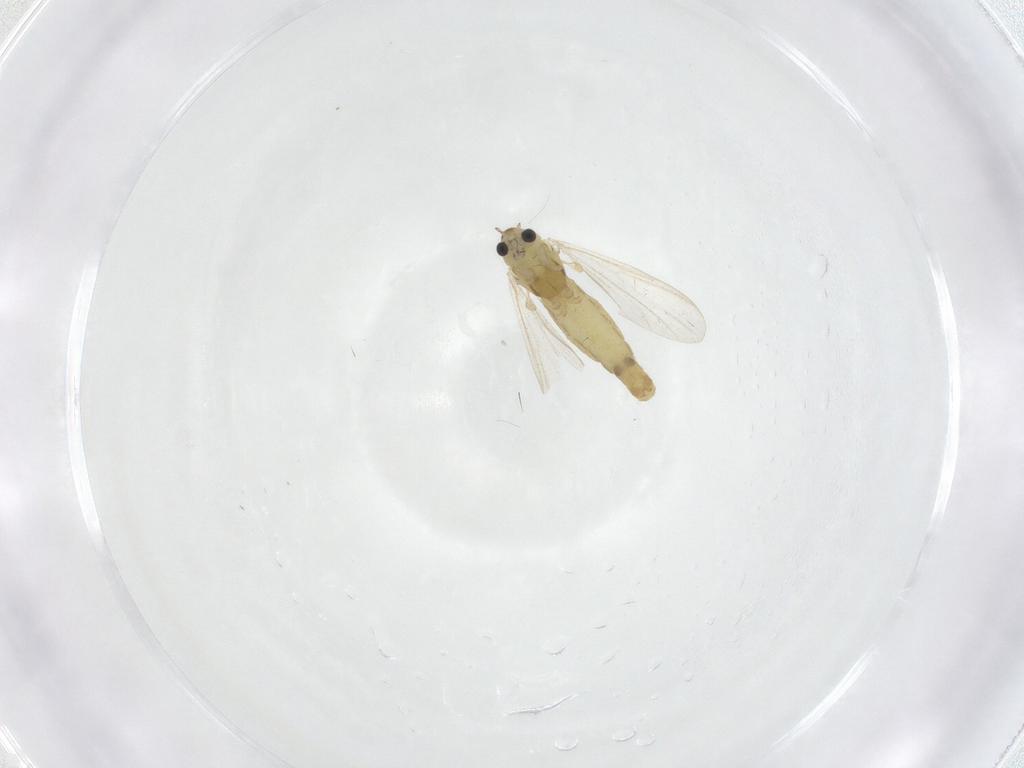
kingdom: Animalia
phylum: Arthropoda
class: Insecta
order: Diptera
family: Chironomidae
